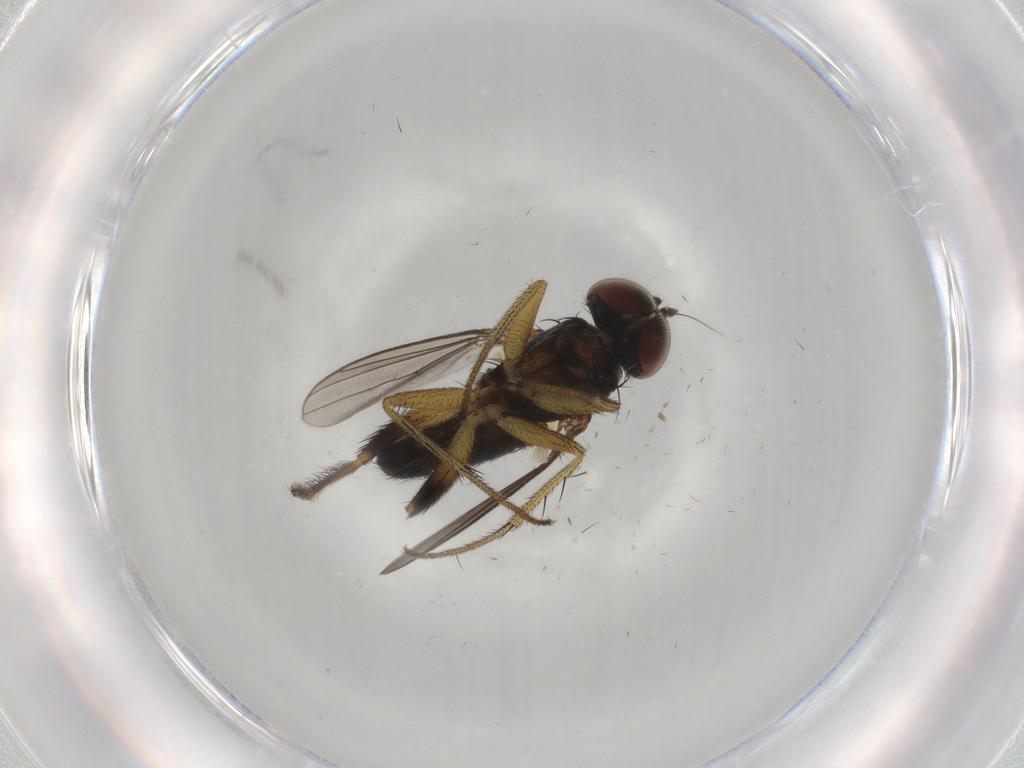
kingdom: Animalia
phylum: Arthropoda
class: Insecta
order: Diptera
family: Dolichopodidae
